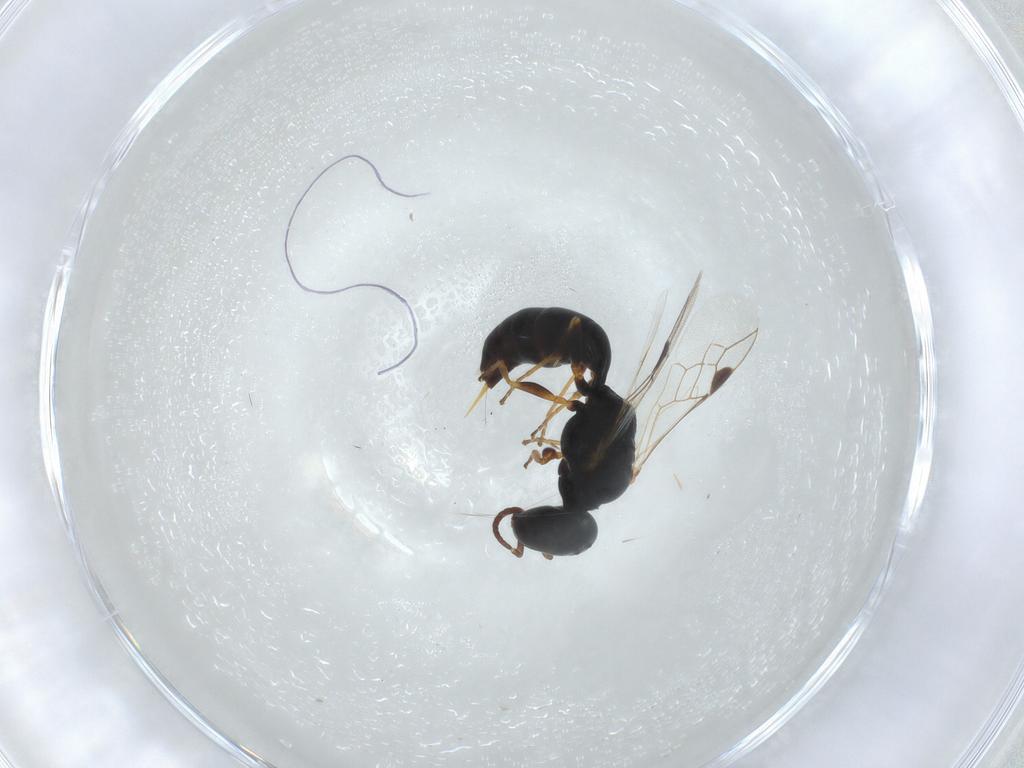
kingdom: Animalia
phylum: Arthropoda
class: Insecta
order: Hymenoptera
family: Pemphredonidae
